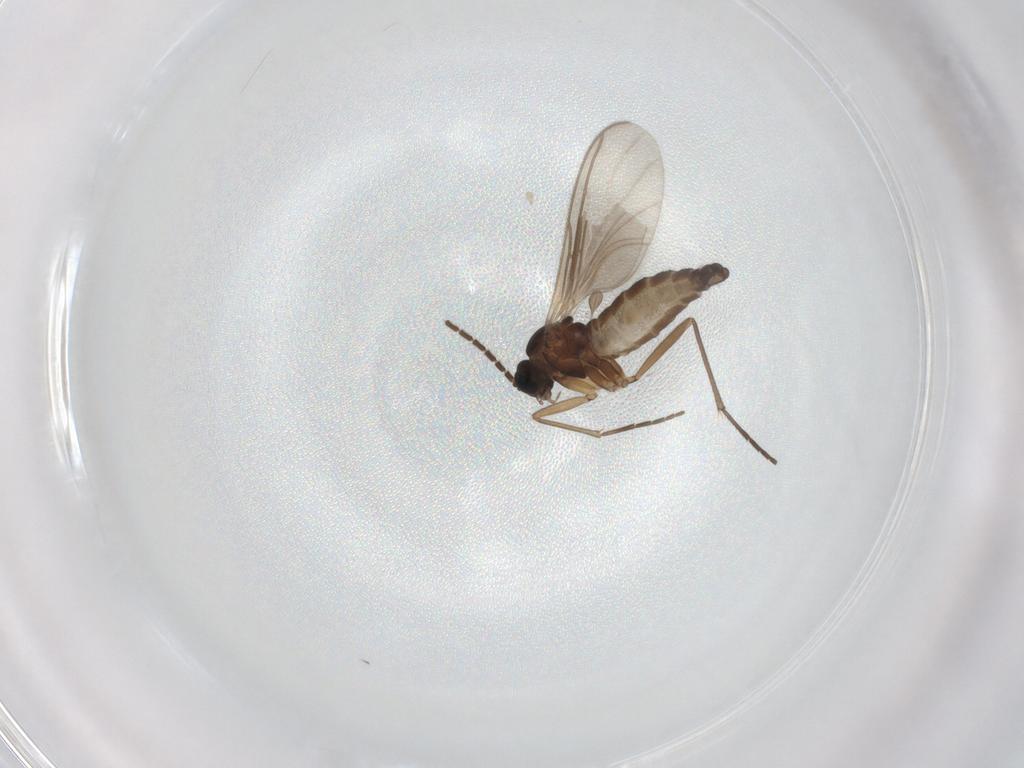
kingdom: Animalia
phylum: Arthropoda
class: Insecta
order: Diptera
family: Sciaridae
